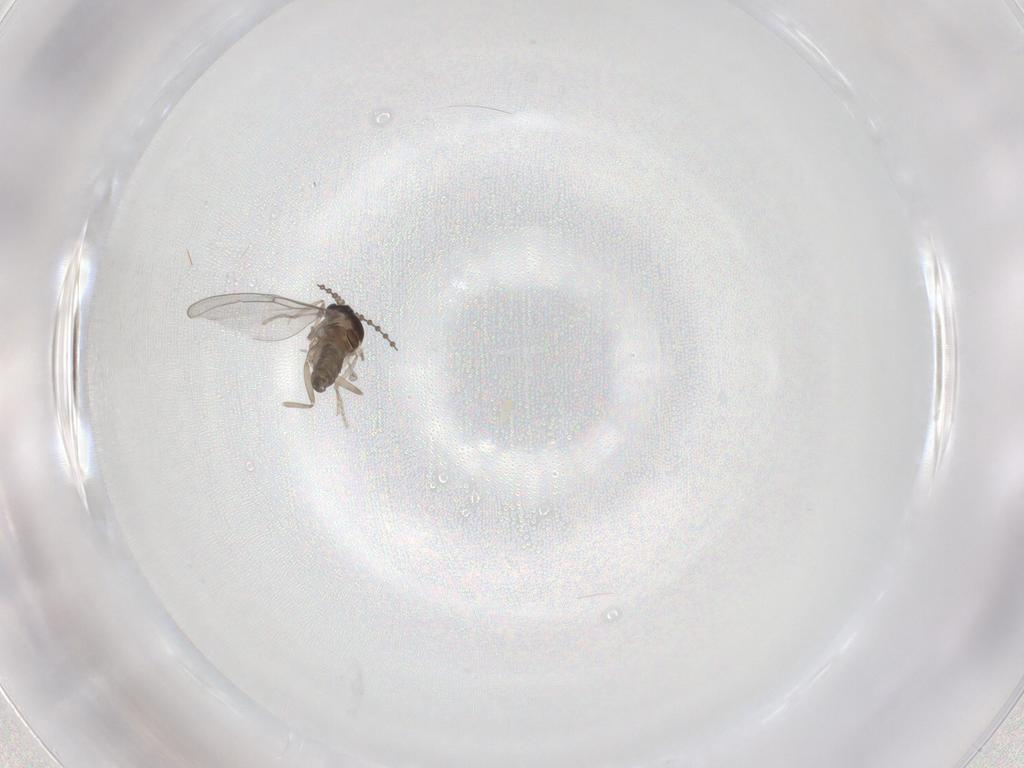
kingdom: Animalia
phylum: Arthropoda
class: Insecta
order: Diptera
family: Cecidomyiidae
